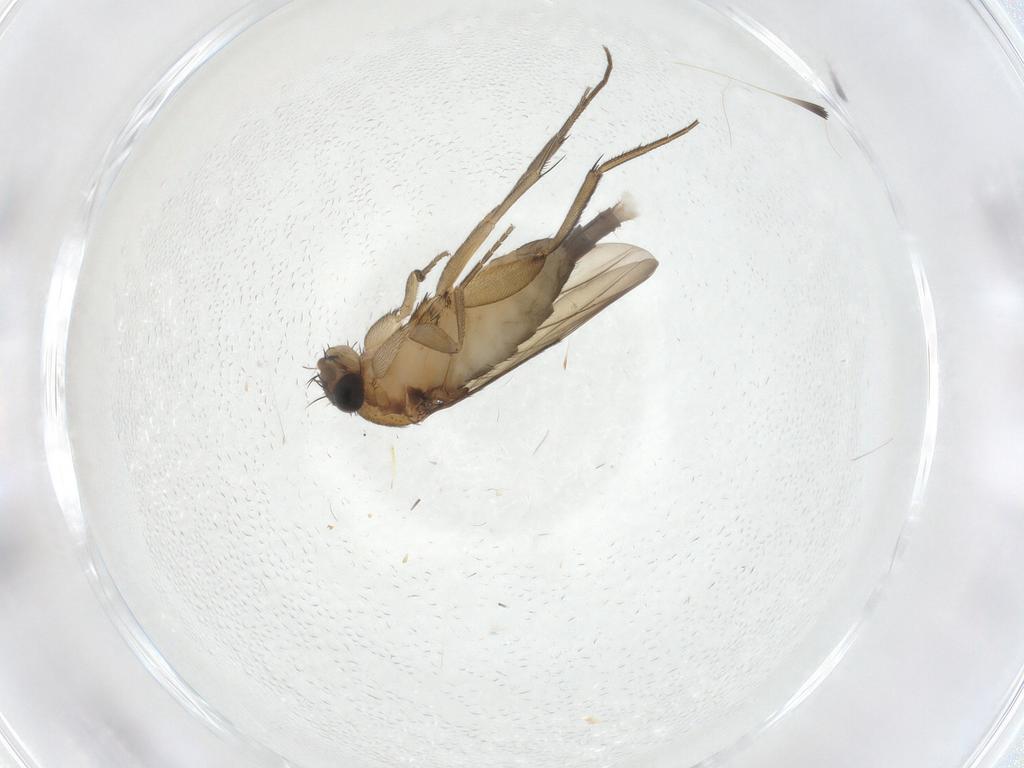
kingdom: Animalia
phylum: Arthropoda
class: Insecta
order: Diptera
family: Phoridae
